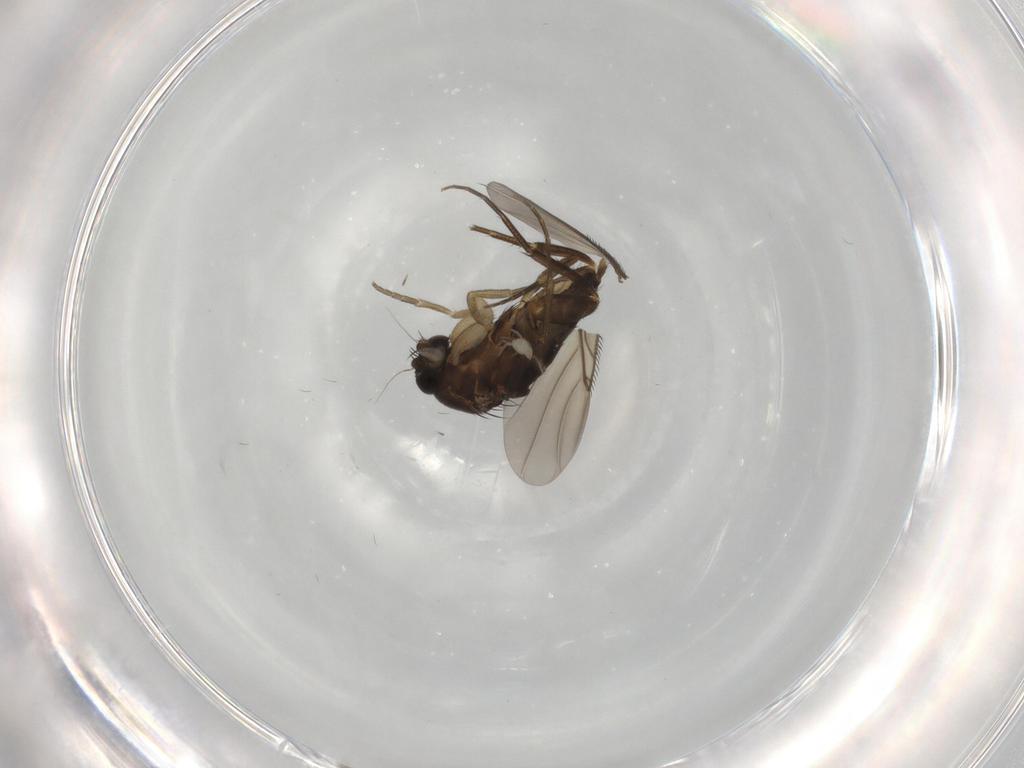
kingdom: Animalia
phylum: Arthropoda
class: Insecta
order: Diptera
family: Phoridae
